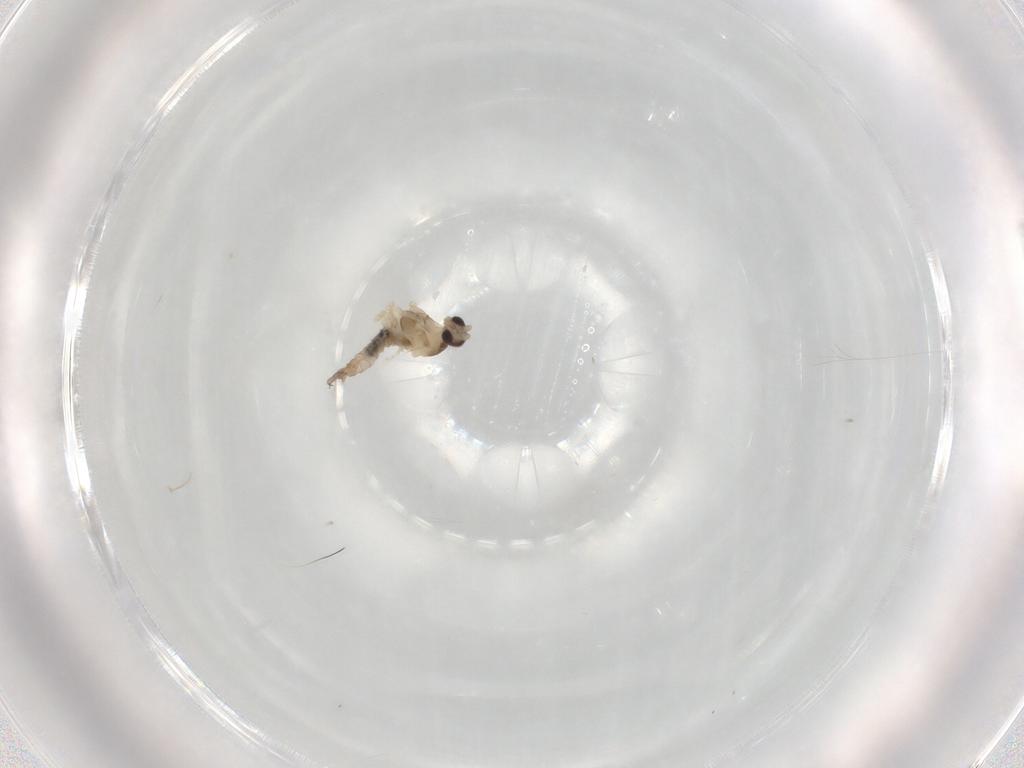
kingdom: Animalia
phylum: Arthropoda
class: Insecta
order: Diptera
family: Cecidomyiidae
